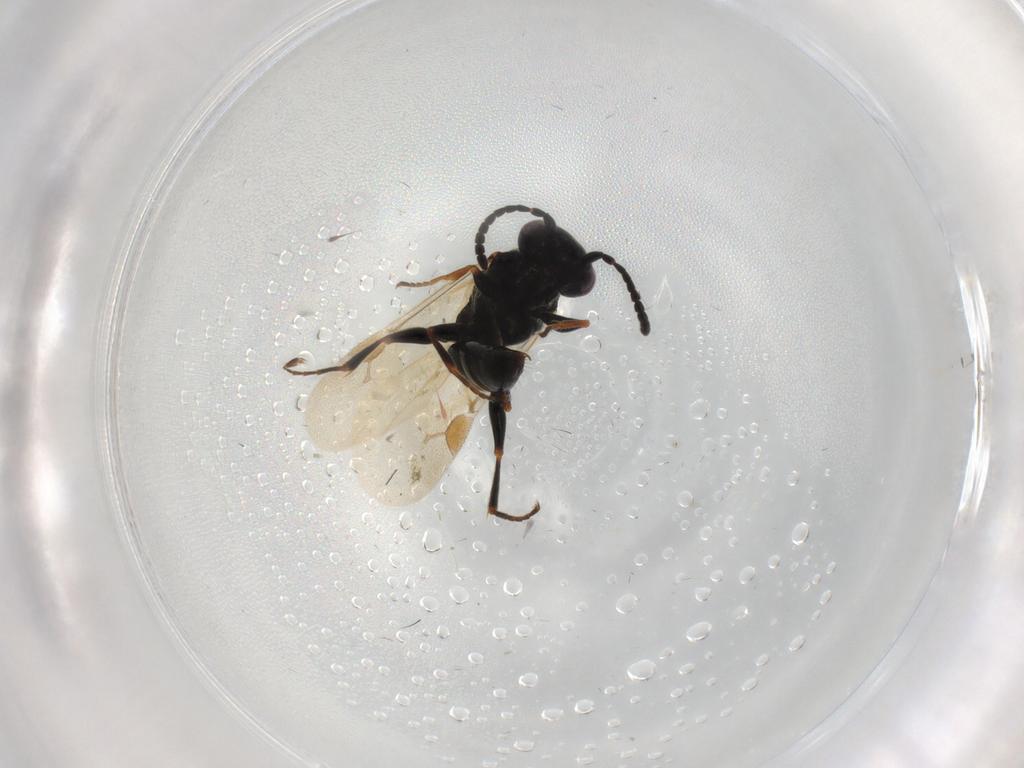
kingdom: Animalia
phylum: Arthropoda
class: Insecta
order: Hymenoptera
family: Dryinidae
